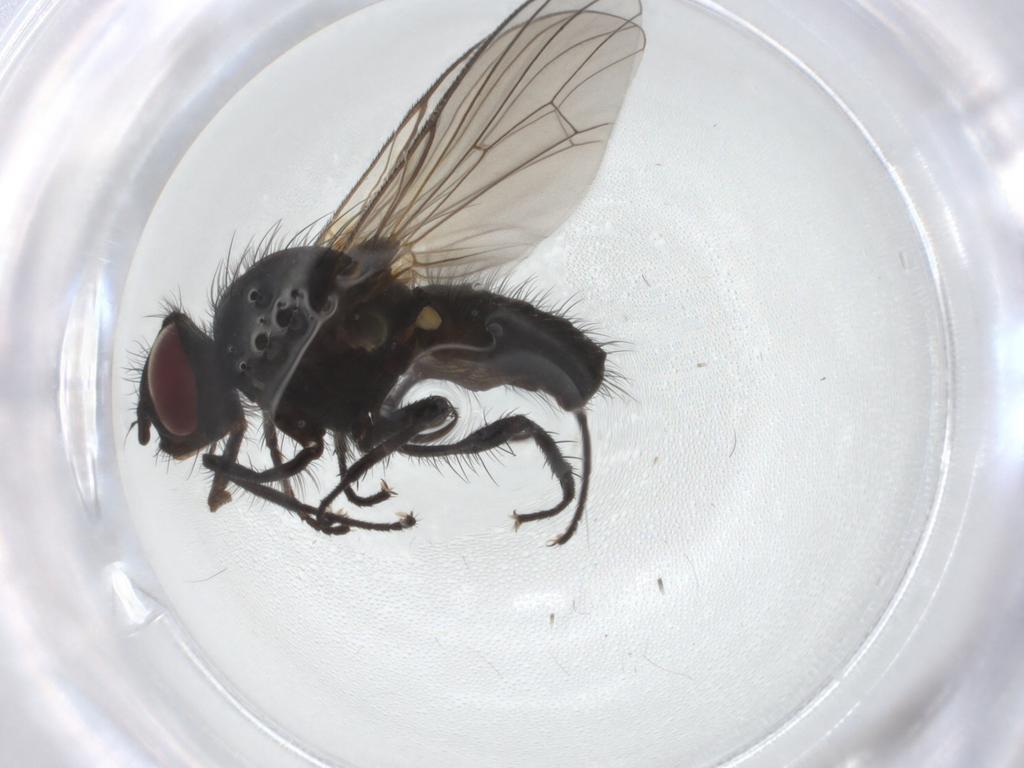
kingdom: Animalia
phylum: Arthropoda
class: Insecta
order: Diptera
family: Anthomyiidae
